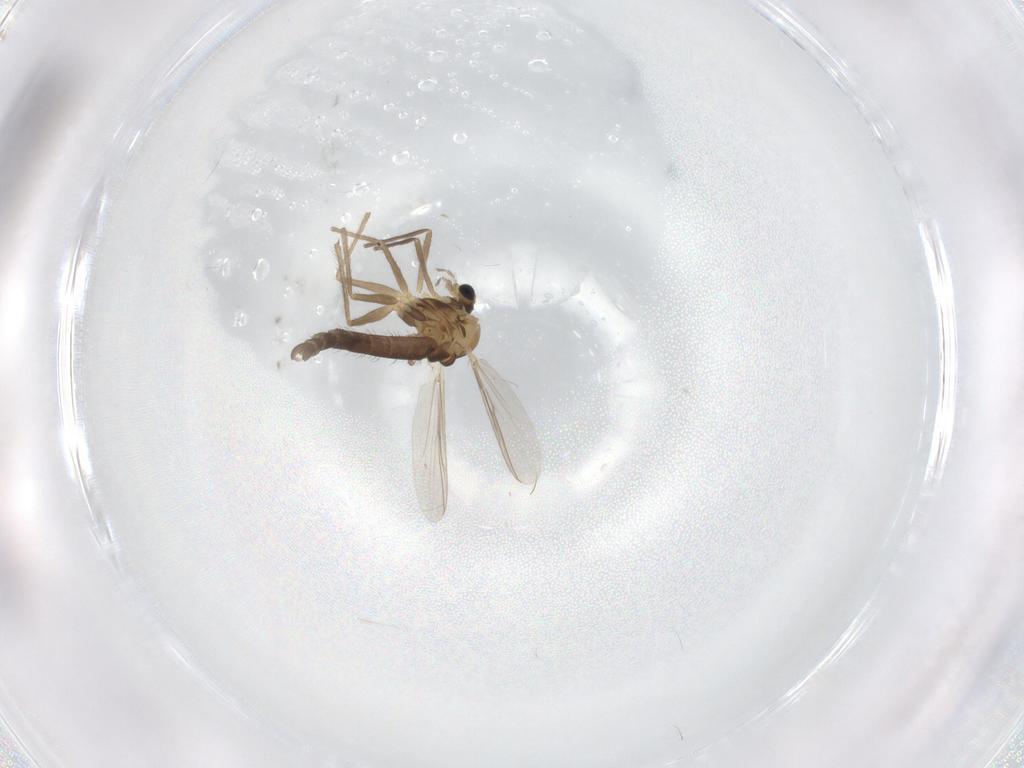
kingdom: Animalia
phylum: Arthropoda
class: Insecta
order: Diptera
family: Chironomidae
